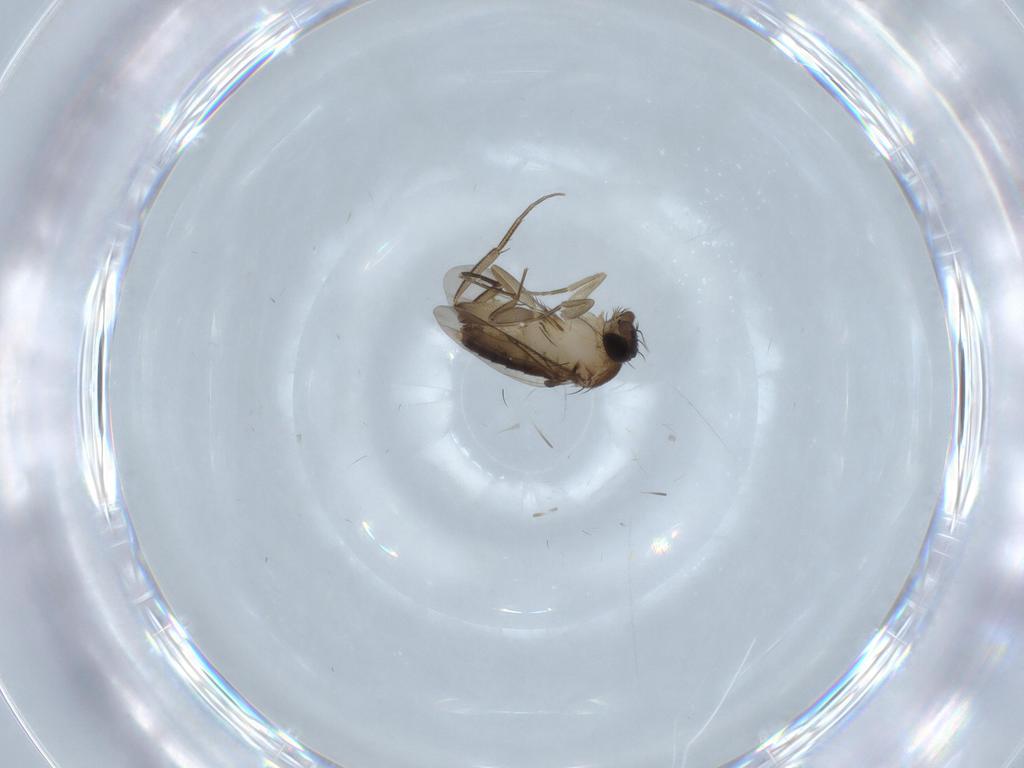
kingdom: Animalia
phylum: Arthropoda
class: Insecta
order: Diptera
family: Phoridae
